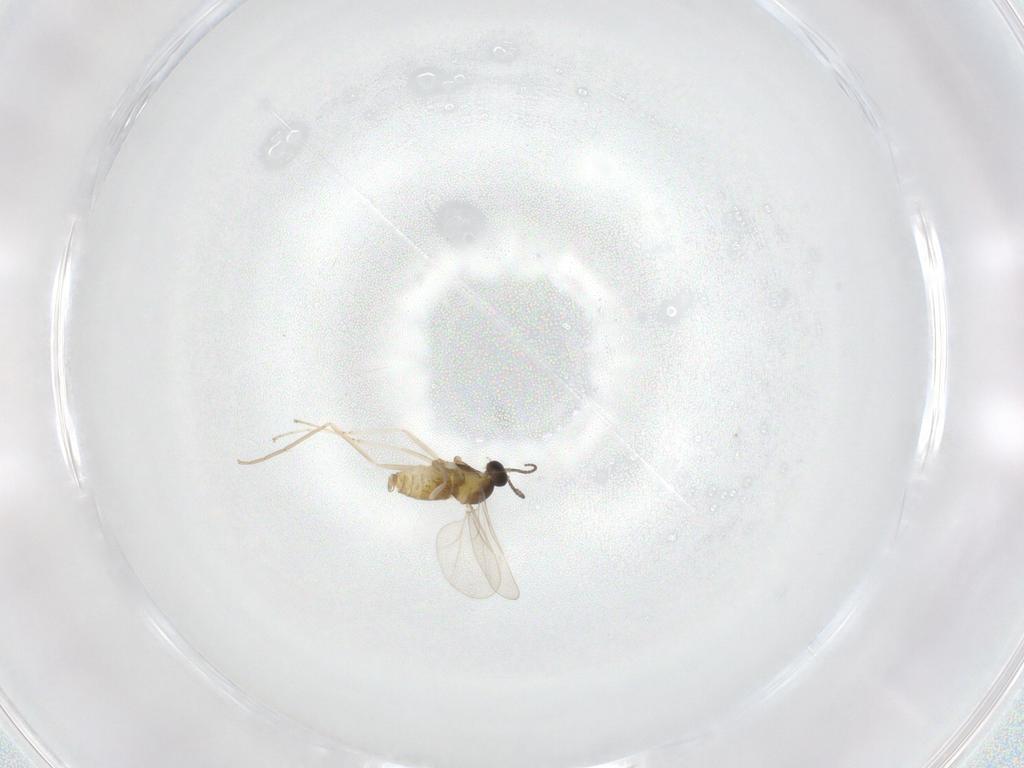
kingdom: Animalia
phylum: Arthropoda
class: Insecta
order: Diptera
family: Cecidomyiidae
